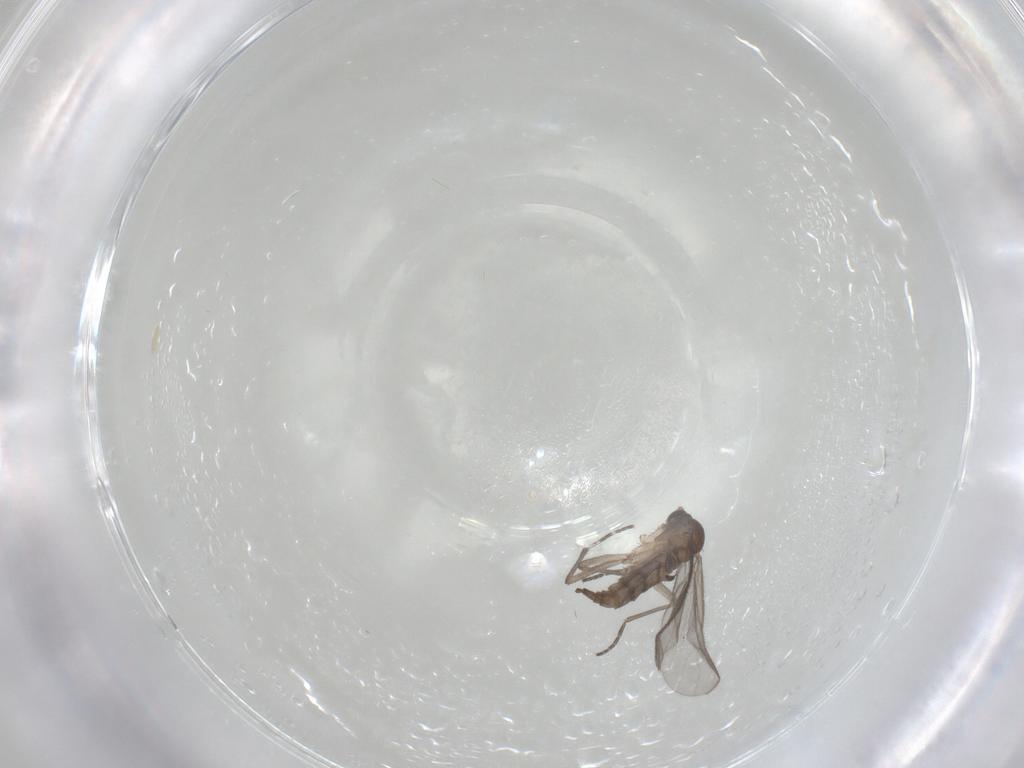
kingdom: Animalia
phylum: Arthropoda
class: Insecta
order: Diptera
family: Sciaridae
